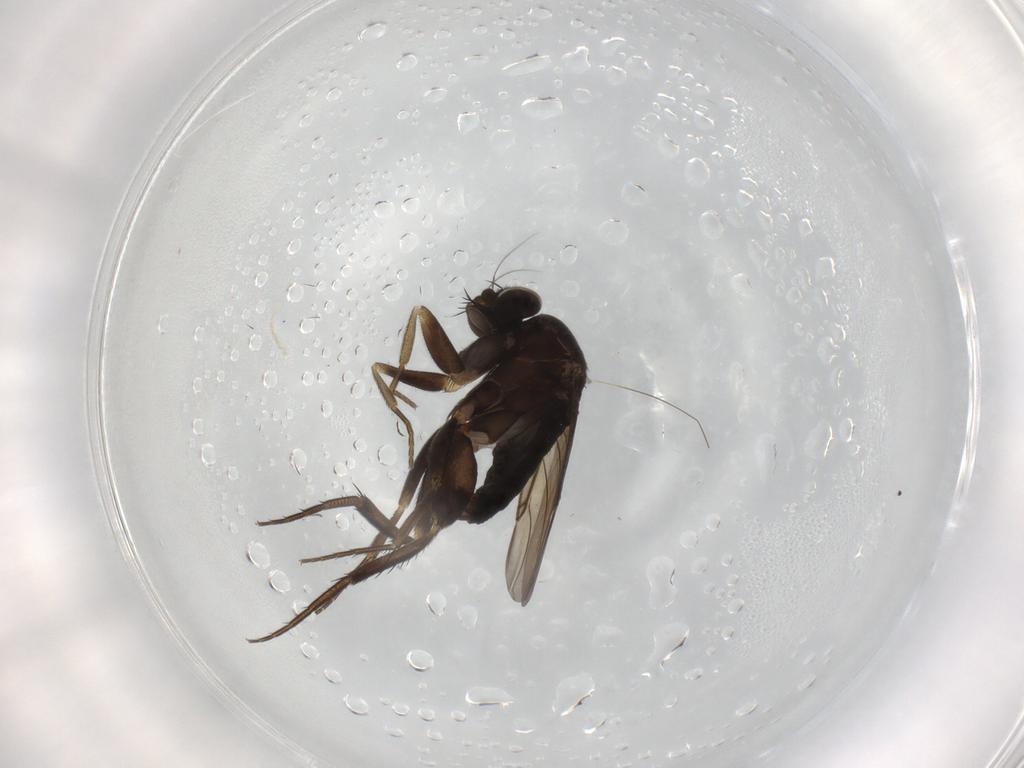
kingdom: Animalia
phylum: Arthropoda
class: Insecta
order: Diptera
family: Phoridae
